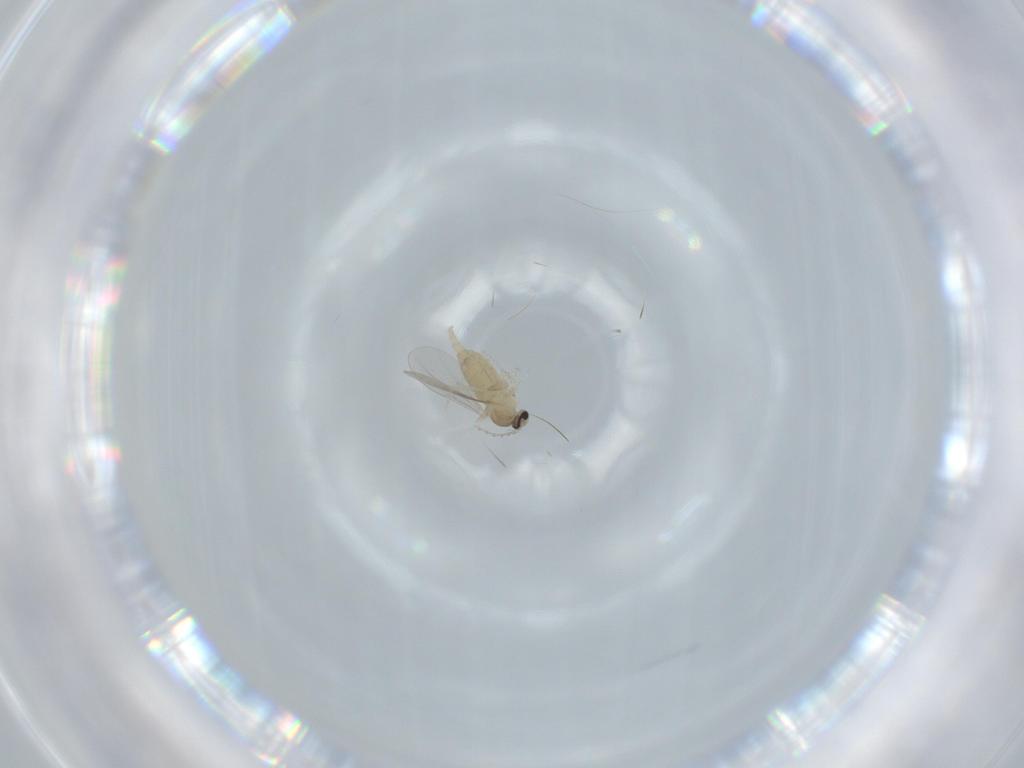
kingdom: Animalia
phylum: Arthropoda
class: Insecta
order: Diptera
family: Cecidomyiidae
